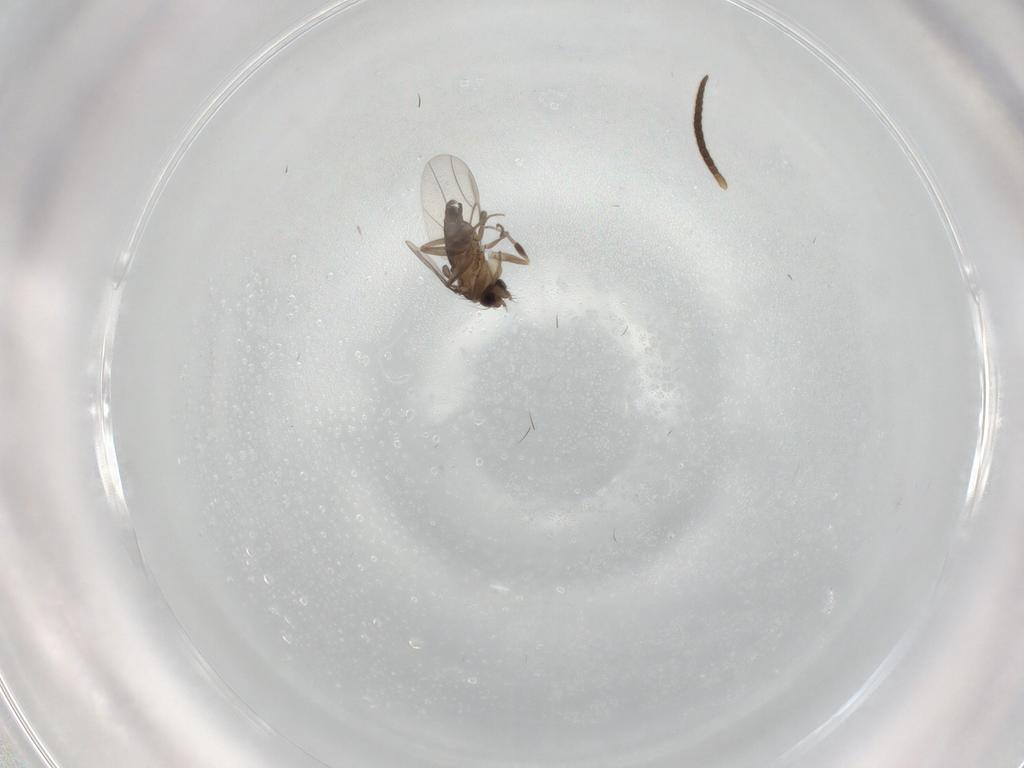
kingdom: Animalia
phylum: Arthropoda
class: Insecta
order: Diptera
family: Phoridae
